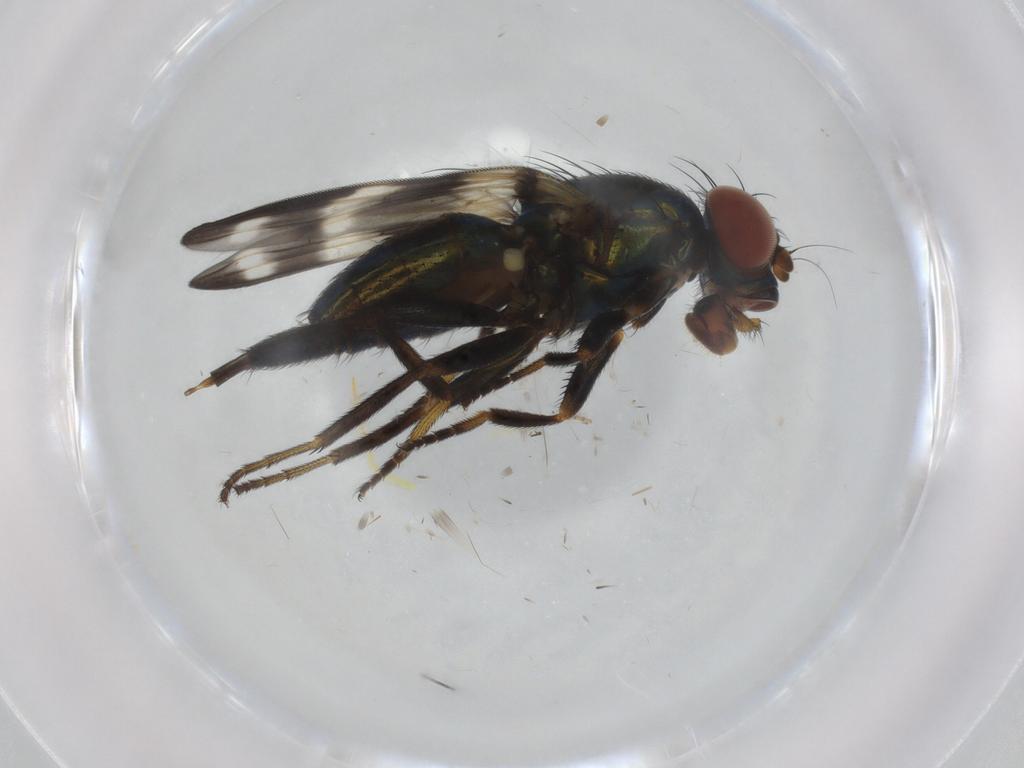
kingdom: Animalia
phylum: Arthropoda
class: Insecta
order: Diptera
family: Ulidiidae
